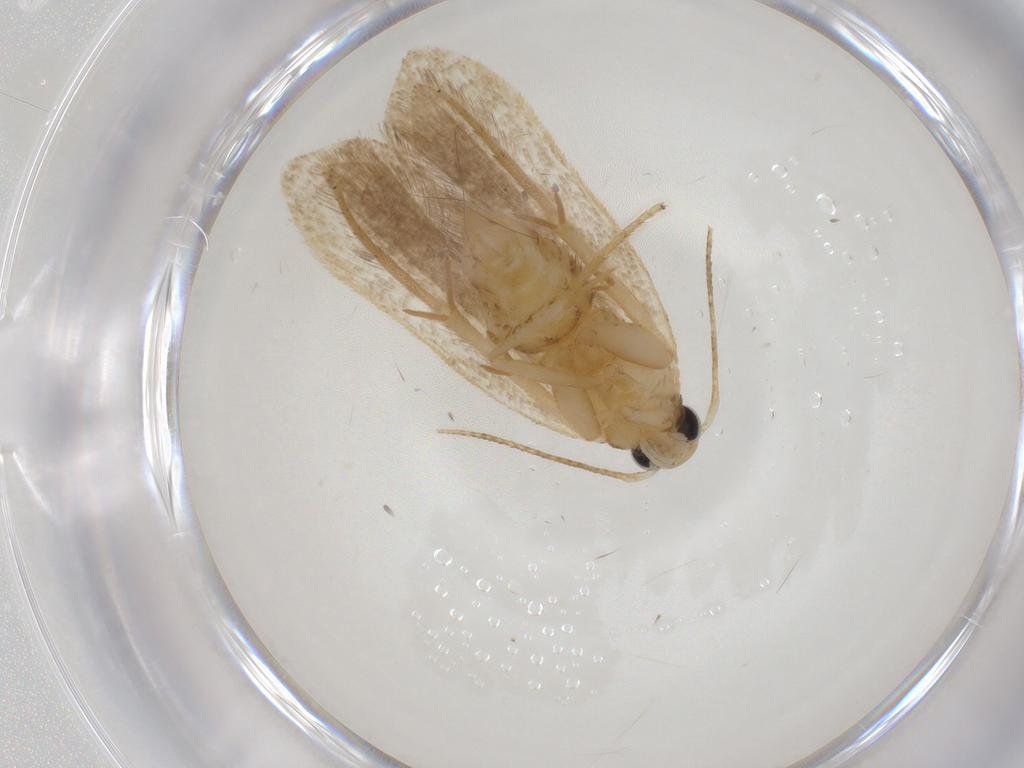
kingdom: Animalia
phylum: Arthropoda
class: Insecta
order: Lepidoptera
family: Gelechiidae
